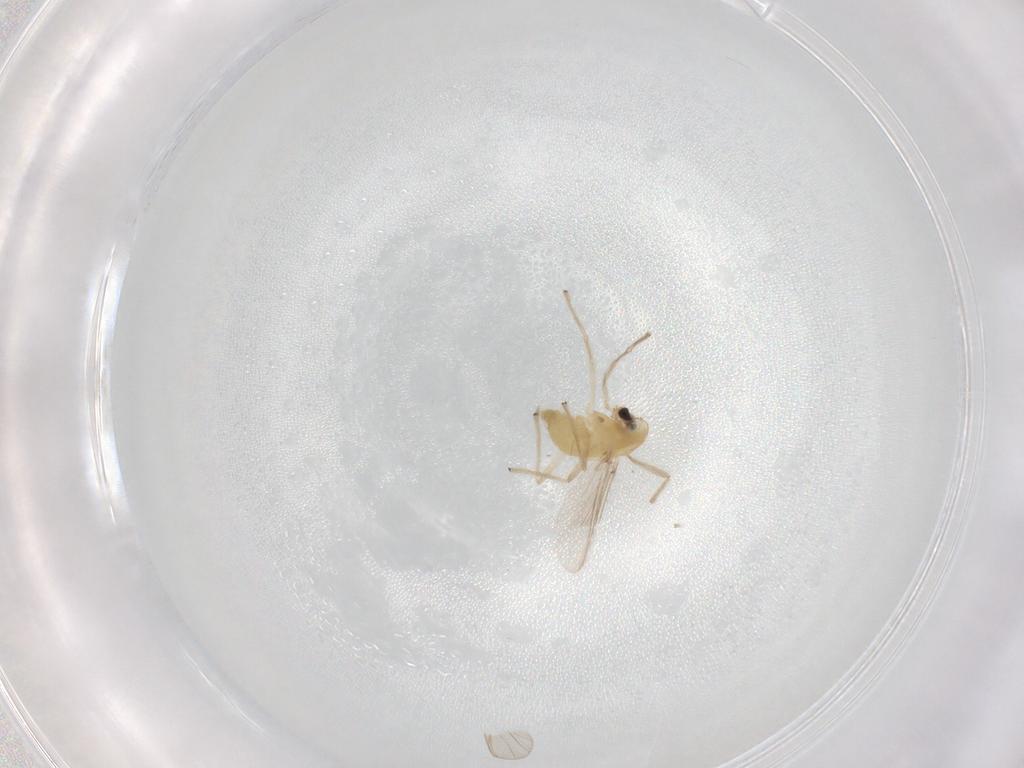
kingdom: Animalia
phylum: Arthropoda
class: Insecta
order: Diptera
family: Chironomidae
